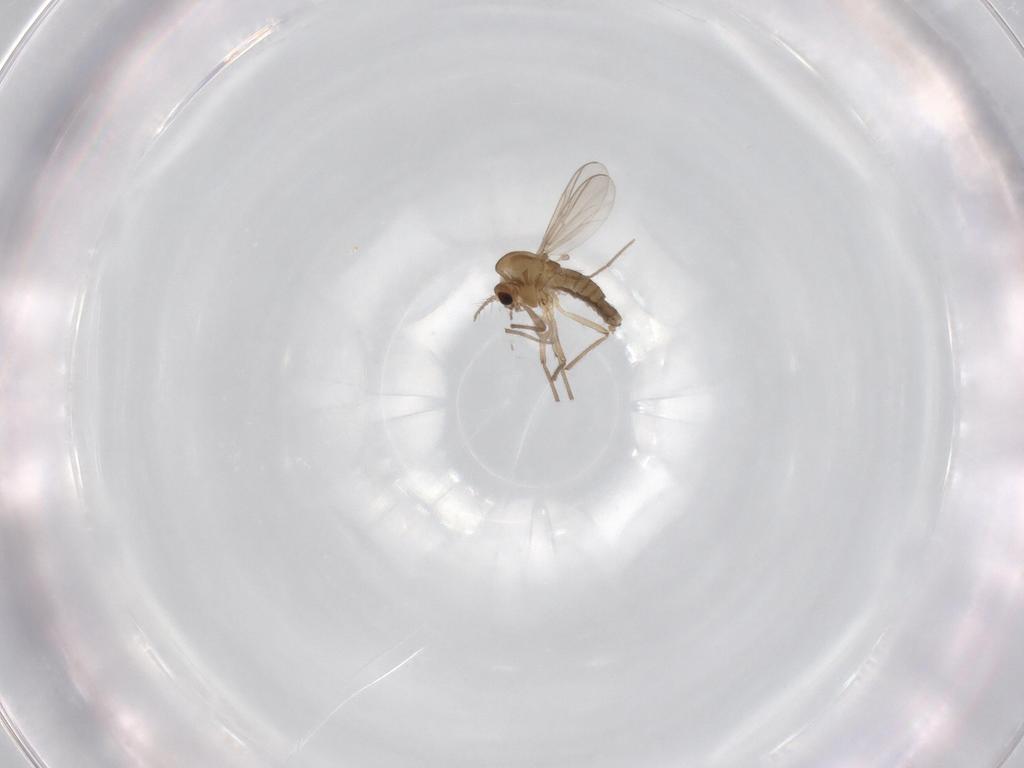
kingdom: Animalia
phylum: Arthropoda
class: Insecta
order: Diptera
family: Chironomidae
